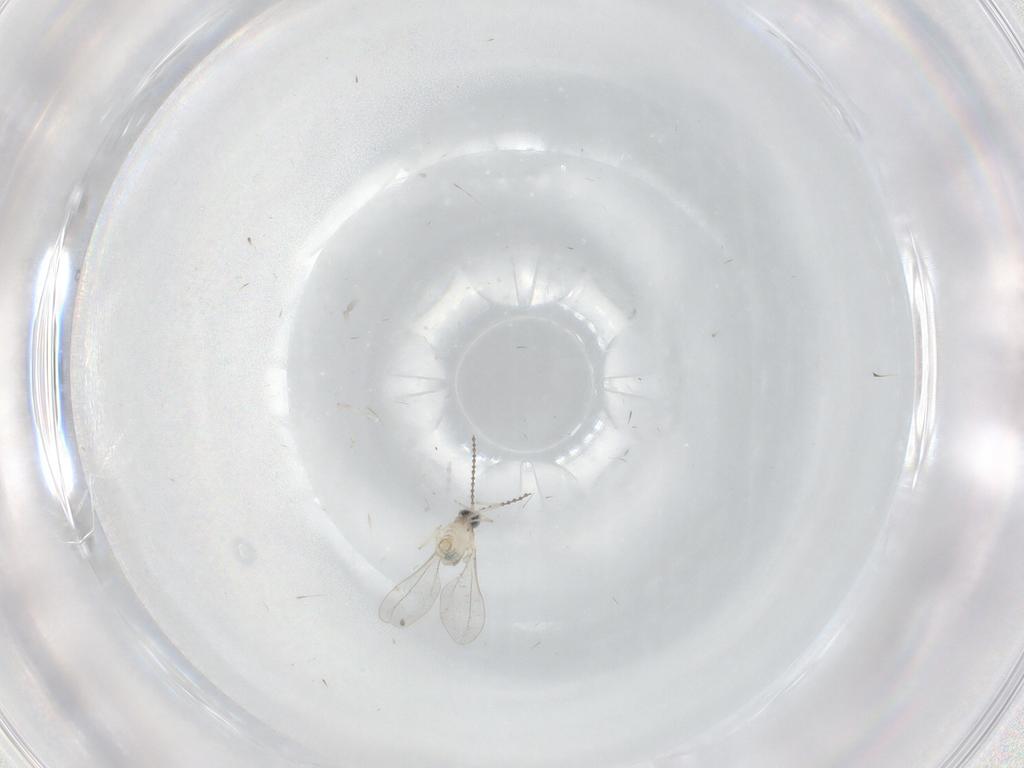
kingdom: Animalia
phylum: Arthropoda
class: Insecta
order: Diptera
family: Cecidomyiidae
